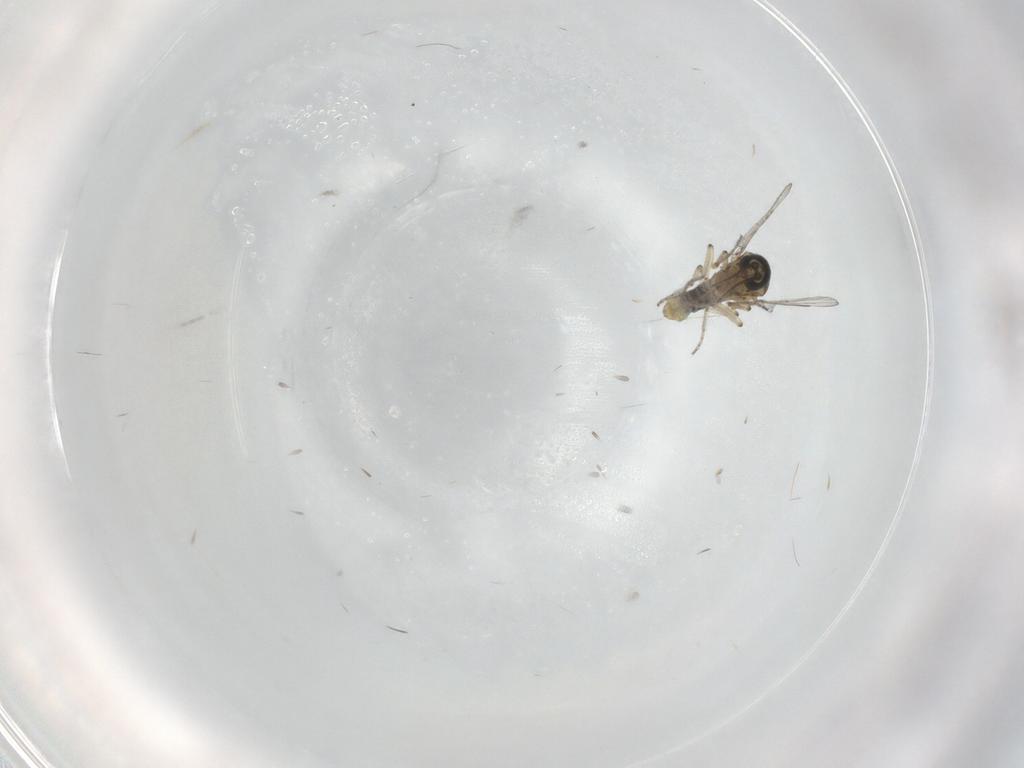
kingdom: Animalia
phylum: Arthropoda
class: Insecta
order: Diptera
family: Ceratopogonidae
